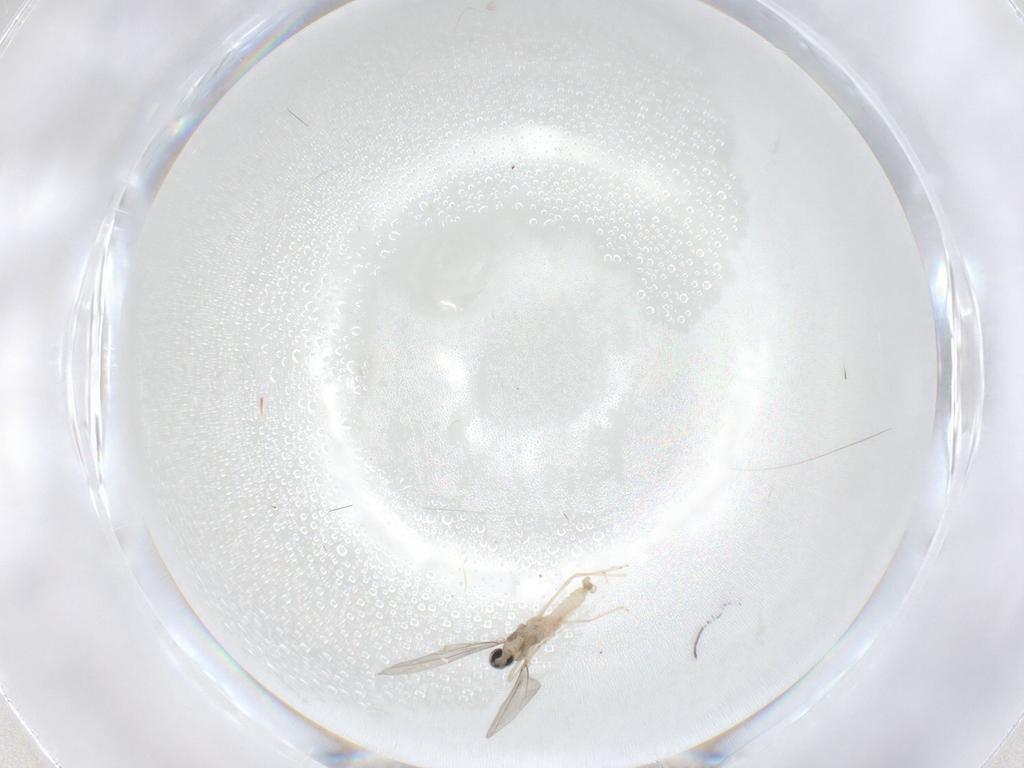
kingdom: Animalia
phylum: Arthropoda
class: Insecta
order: Diptera
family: Cecidomyiidae
